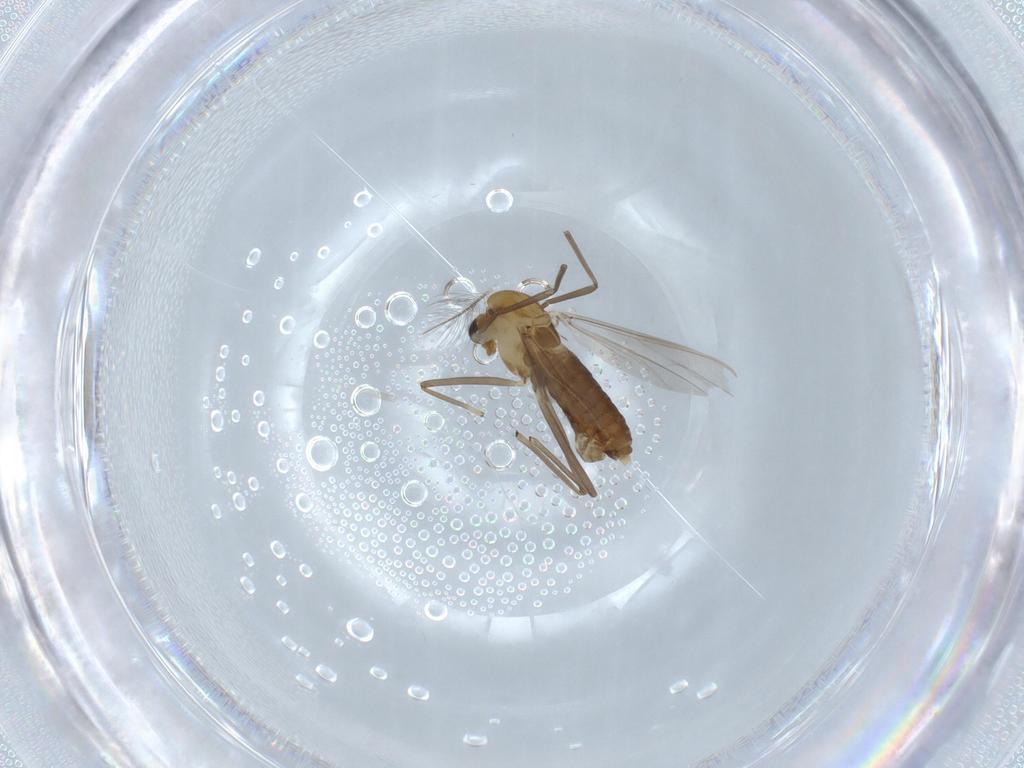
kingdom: Animalia
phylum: Arthropoda
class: Insecta
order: Diptera
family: Chironomidae
